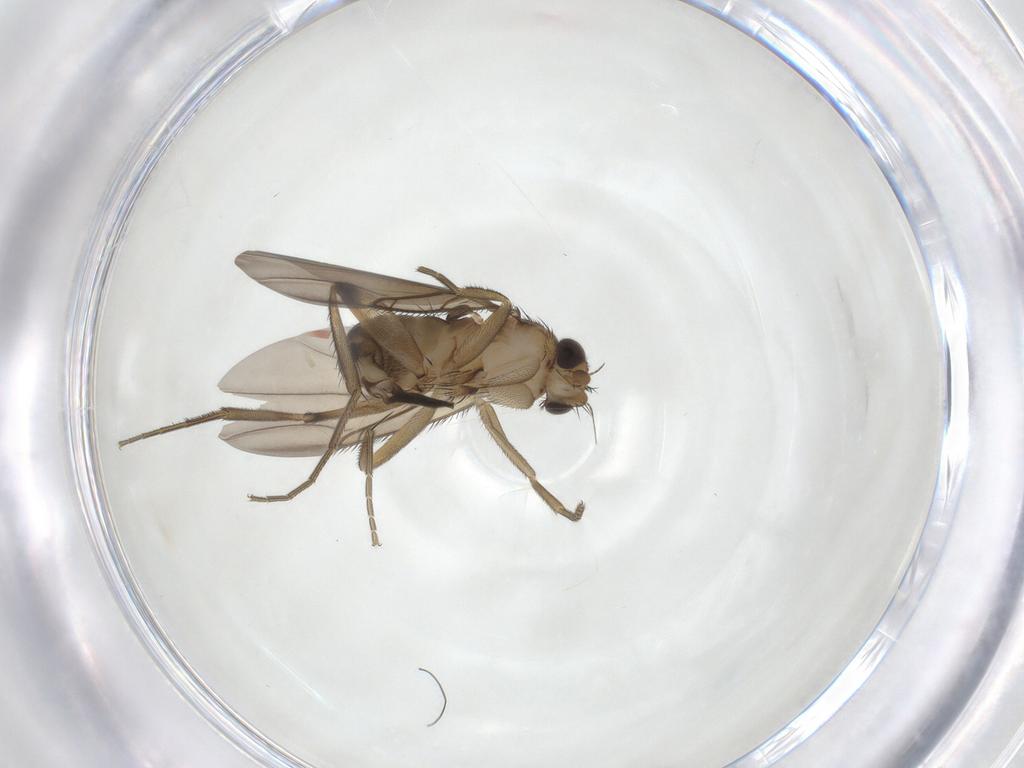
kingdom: Animalia
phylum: Arthropoda
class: Insecta
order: Diptera
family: Phoridae
